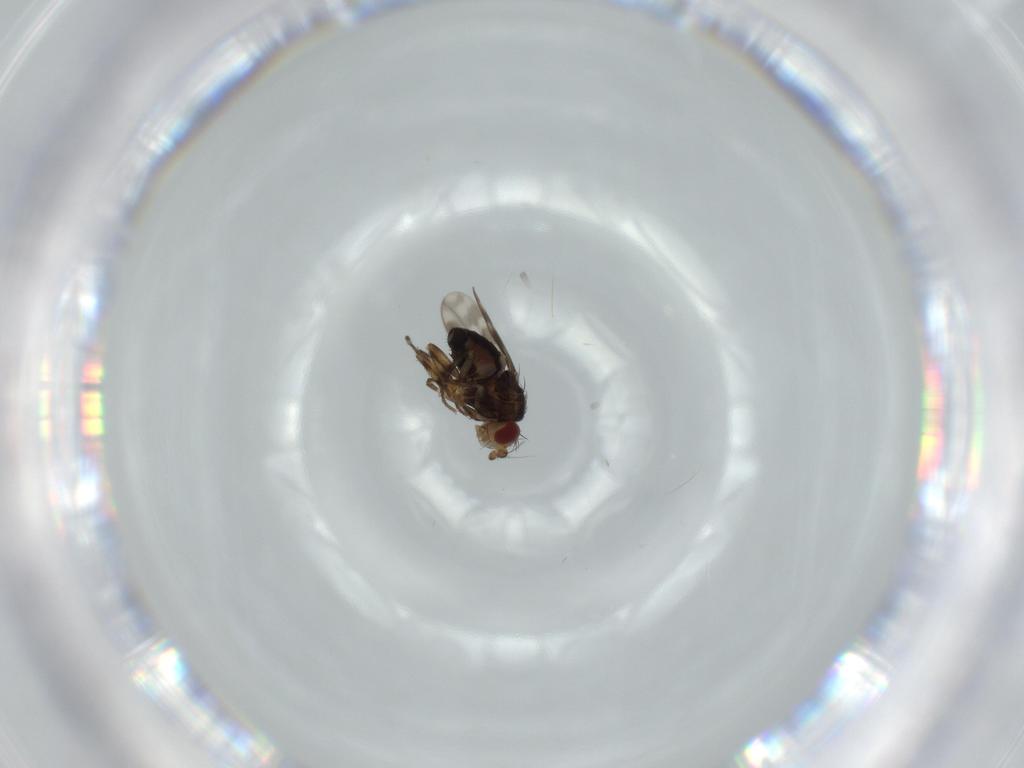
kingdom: Animalia
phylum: Arthropoda
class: Insecta
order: Diptera
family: Sphaeroceridae
